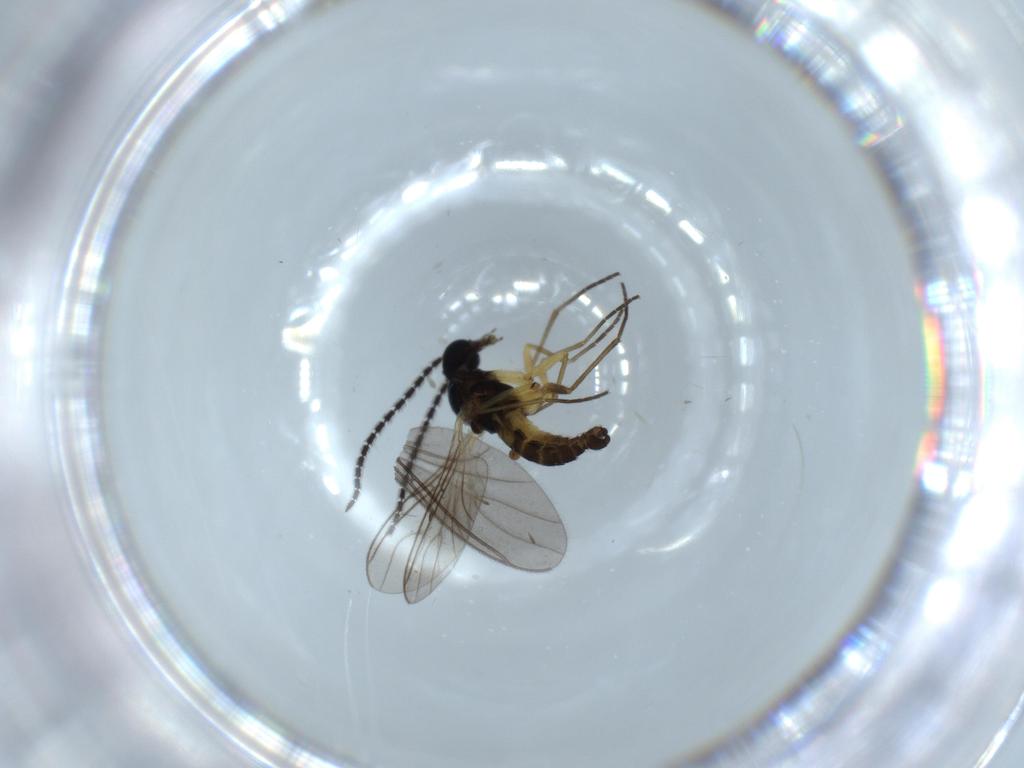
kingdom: Animalia
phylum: Arthropoda
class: Insecta
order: Diptera
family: Sciaridae
